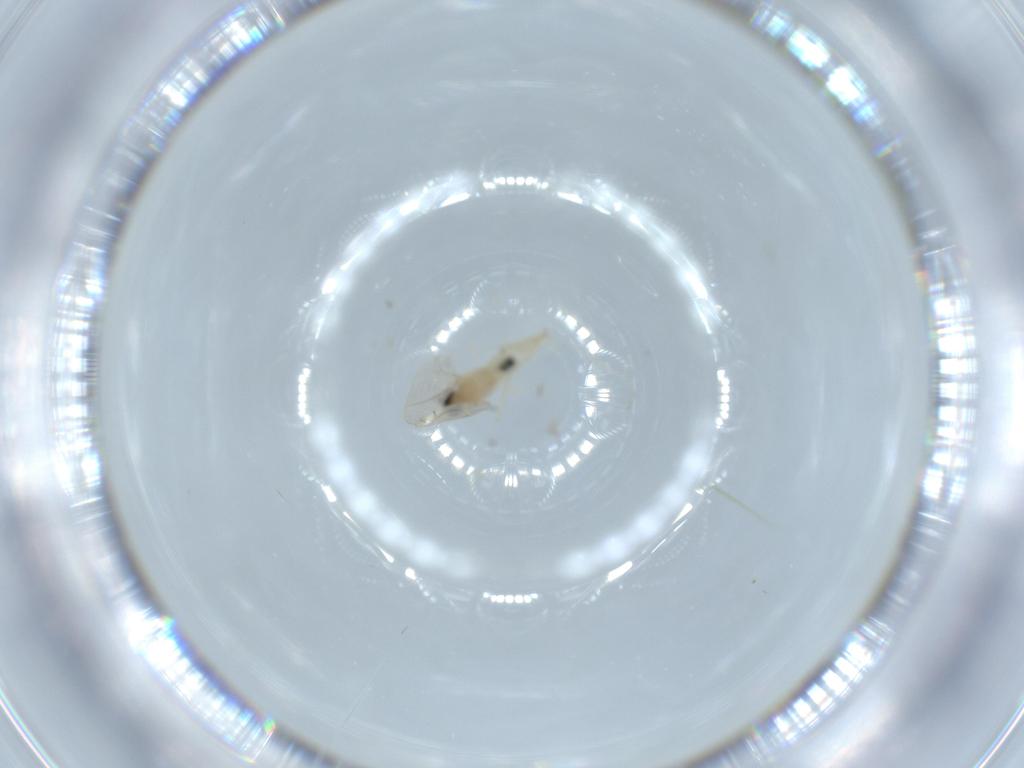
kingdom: Animalia
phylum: Arthropoda
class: Insecta
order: Diptera
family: Cecidomyiidae
